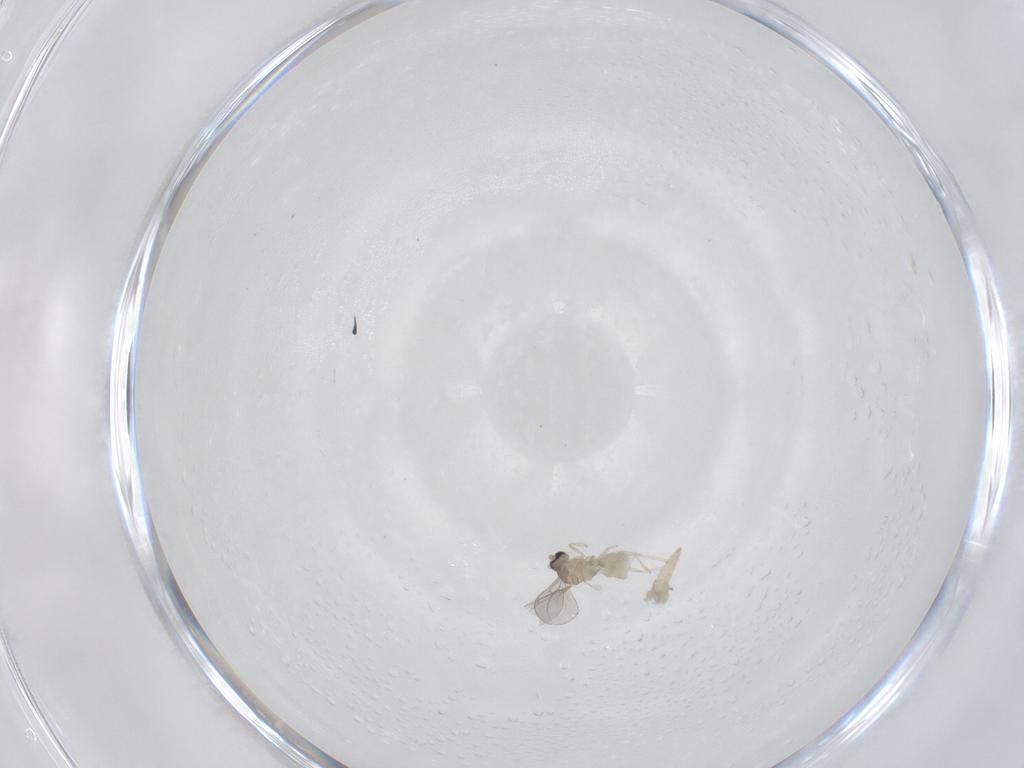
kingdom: Animalia
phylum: Arthropoda
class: Insecta
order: Diptera
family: Cecidomyiidae
